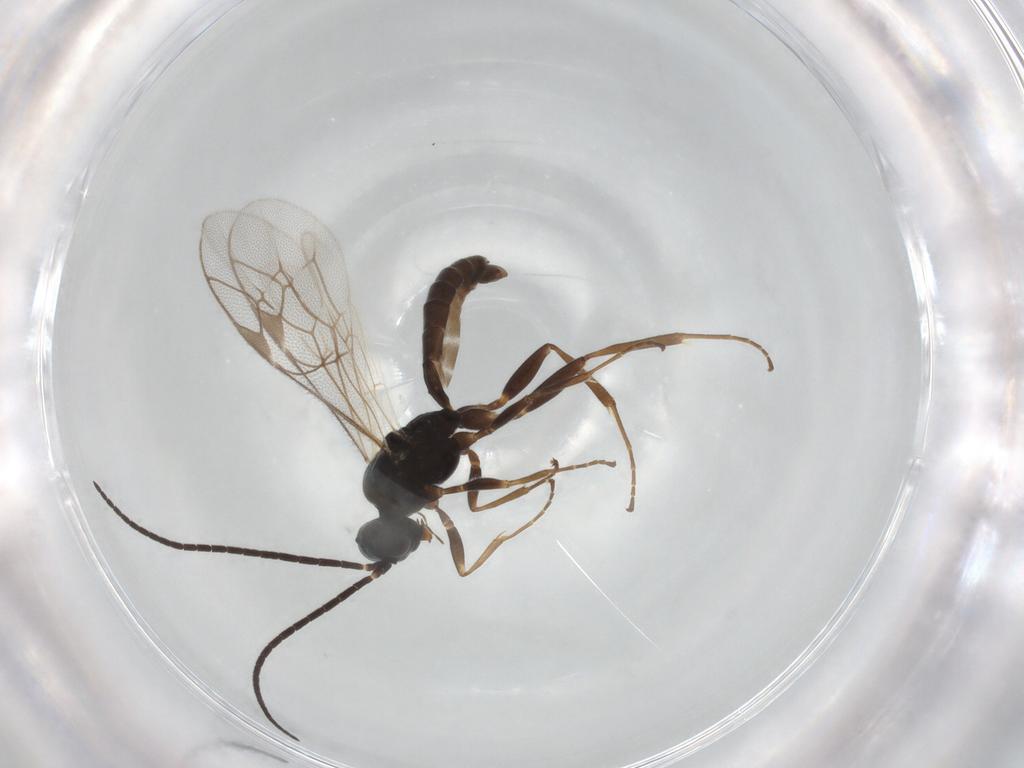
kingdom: Animalia
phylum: Arthropoda
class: Insecta
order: Hymenoptera
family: Ichneumonidae
